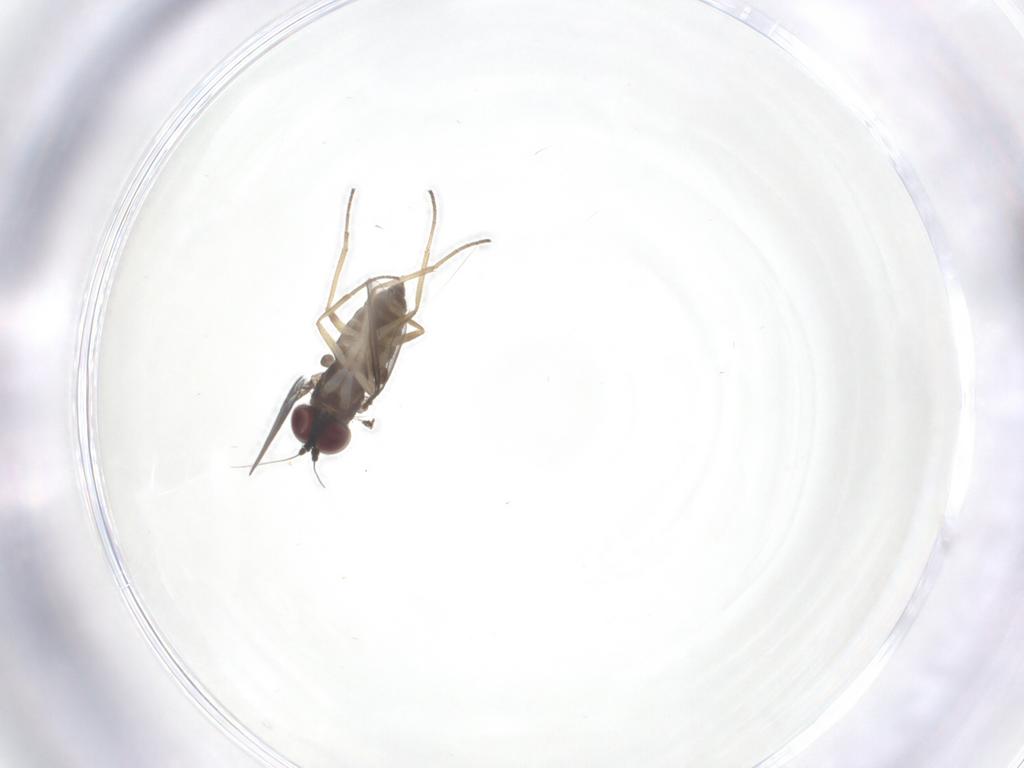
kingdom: Animalia
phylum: Arthropoda
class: Insecta
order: Diptera
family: Dolichopodidae
